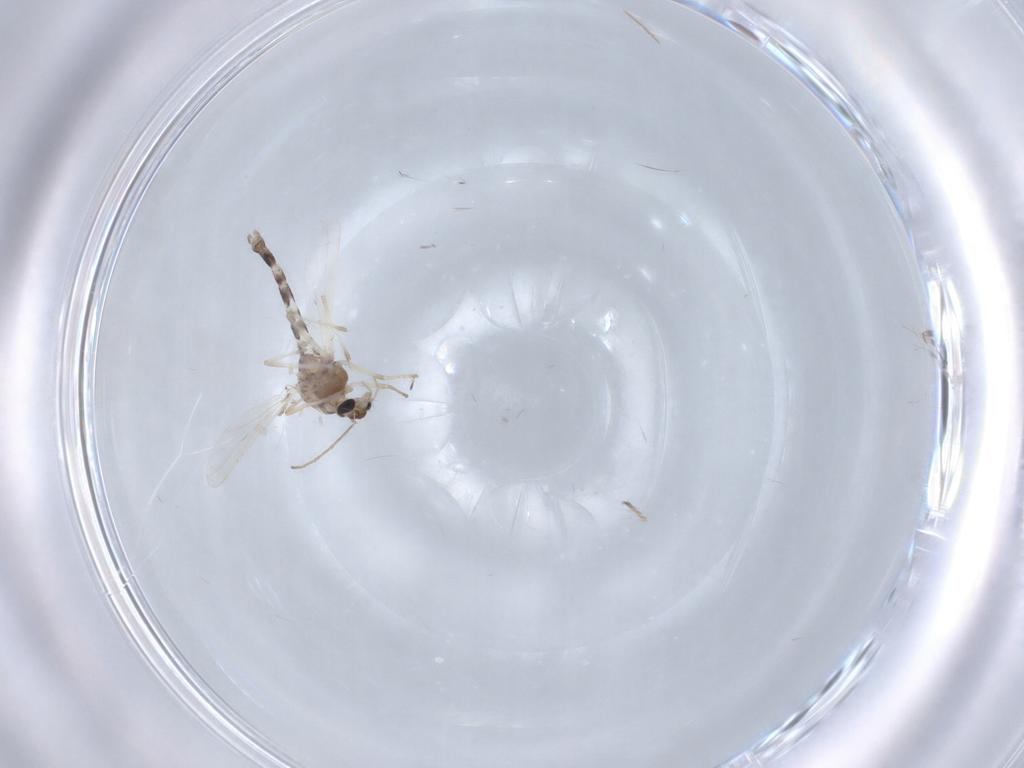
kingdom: Animalia
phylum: Arthropoda
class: Insecta
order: Diptera
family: Chironomidae
